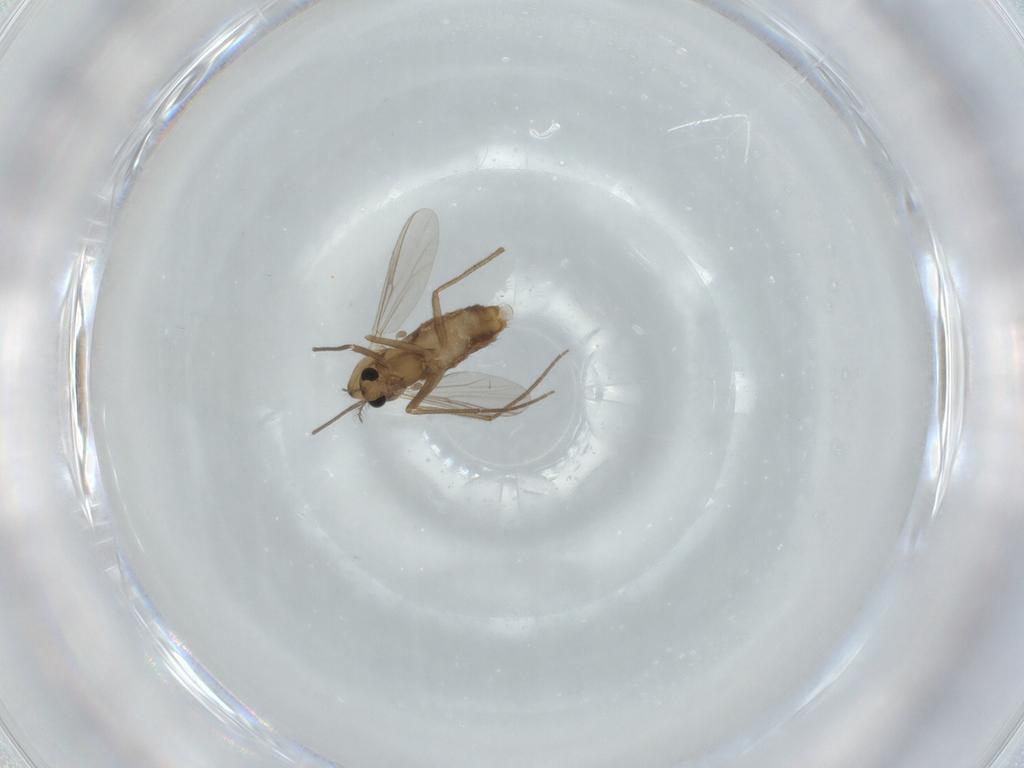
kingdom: Animalia
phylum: Arthropoda
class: Insecta
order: Diptera
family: Chironomidae
